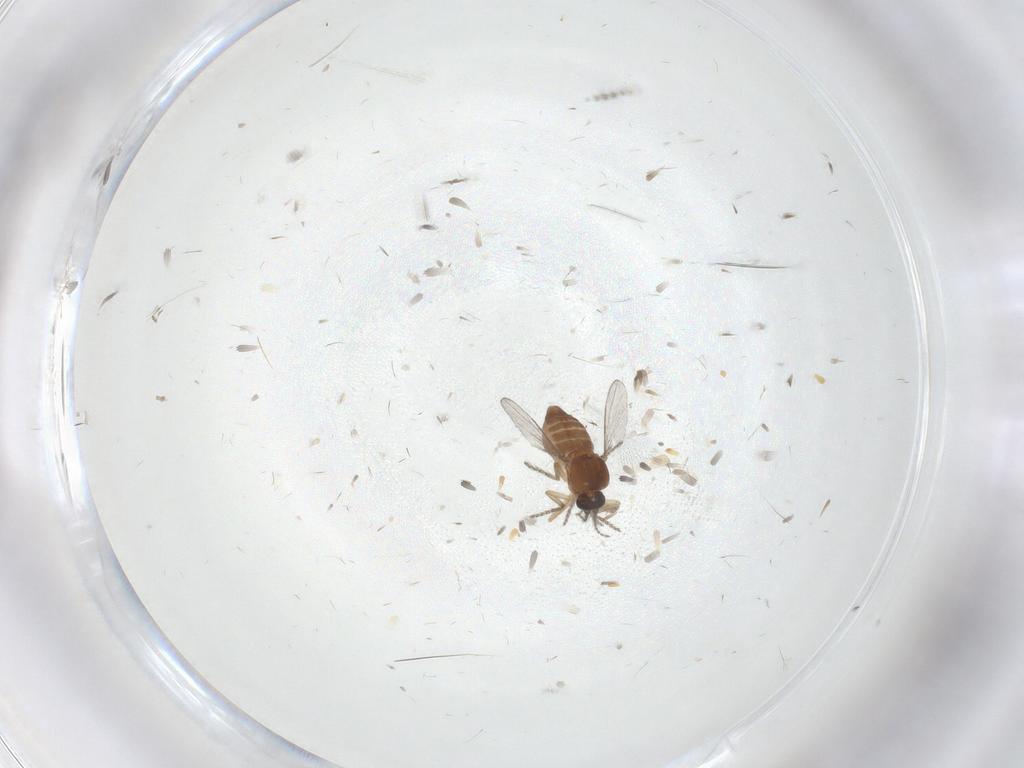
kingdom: Animalia
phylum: Arthropoda
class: Insecta
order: Diptera
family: Ceratopogonidae
